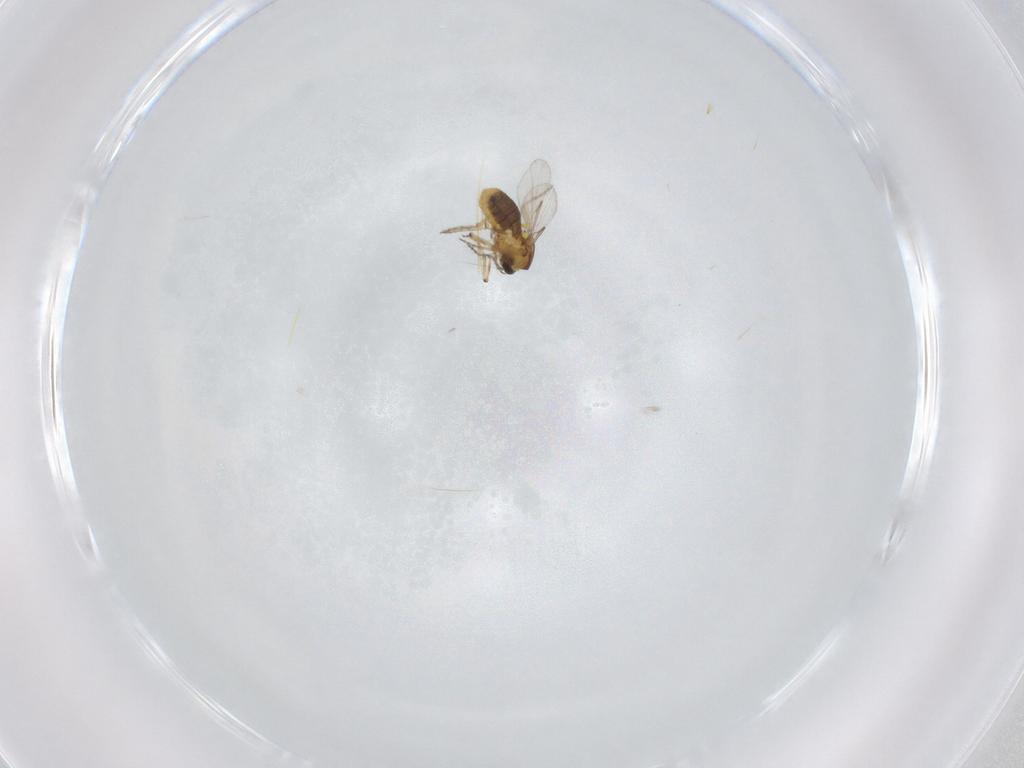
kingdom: Animalia
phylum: Arthropoda
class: Insecta
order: Diptera
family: Ceratopogonidae
